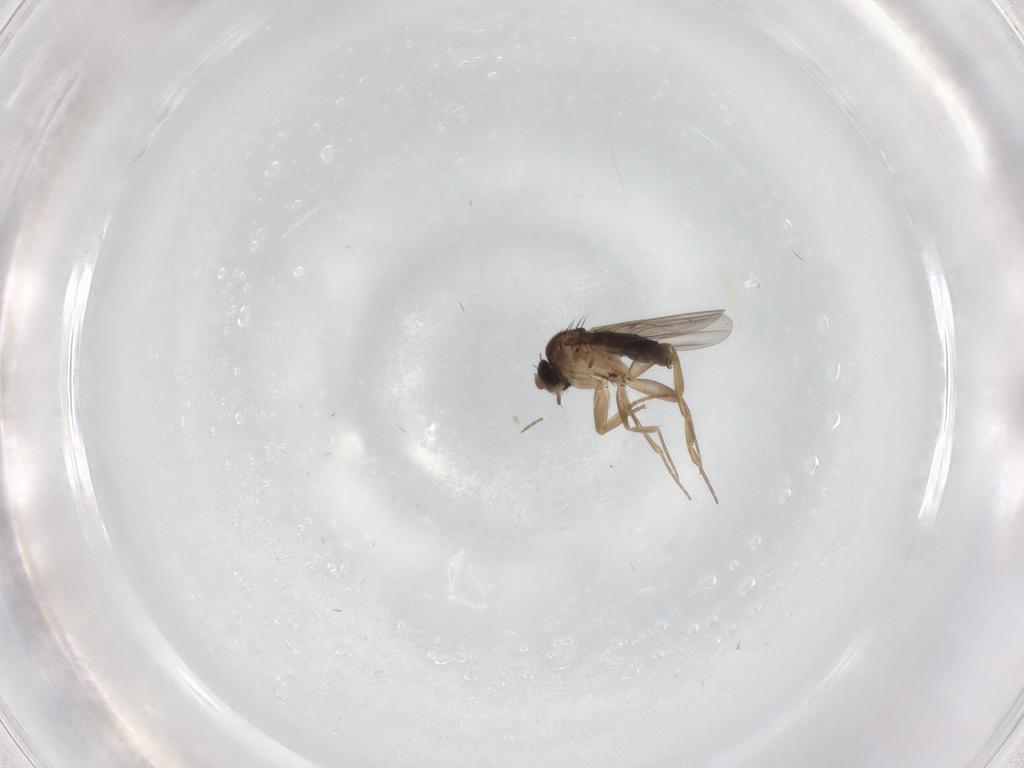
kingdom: Animalia
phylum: Arthropoda
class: Insecta
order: Diptera
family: Phoridae
